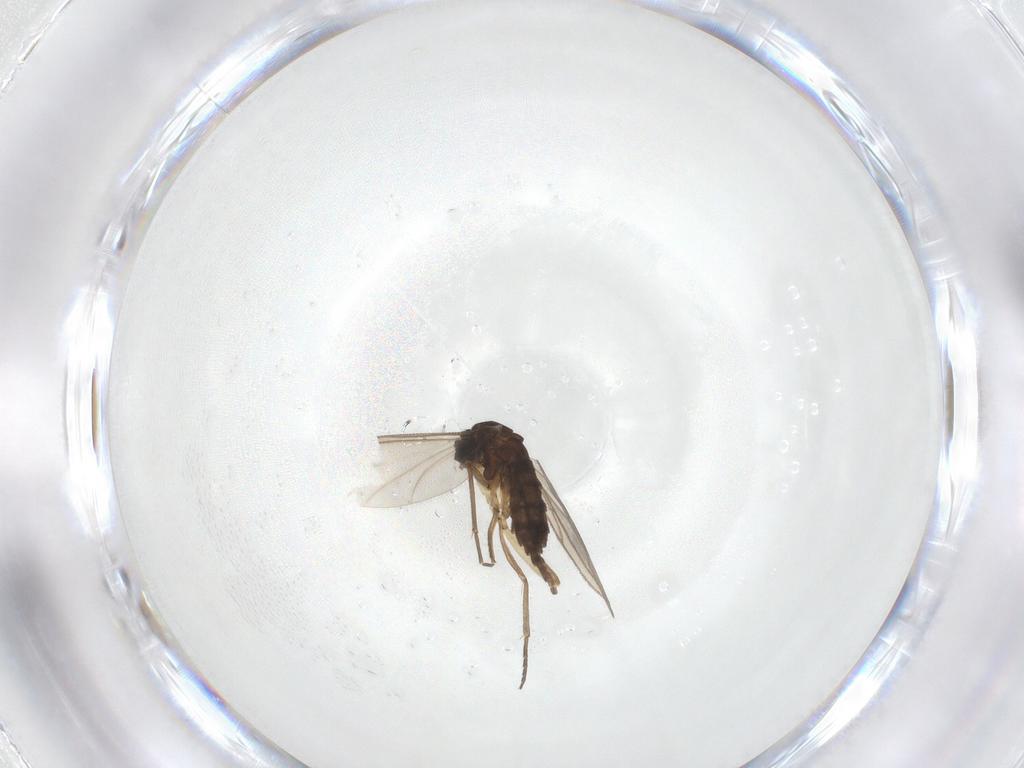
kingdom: Animalia
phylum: Arthropoda
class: Insecta
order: Diptera
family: Sciaridae
